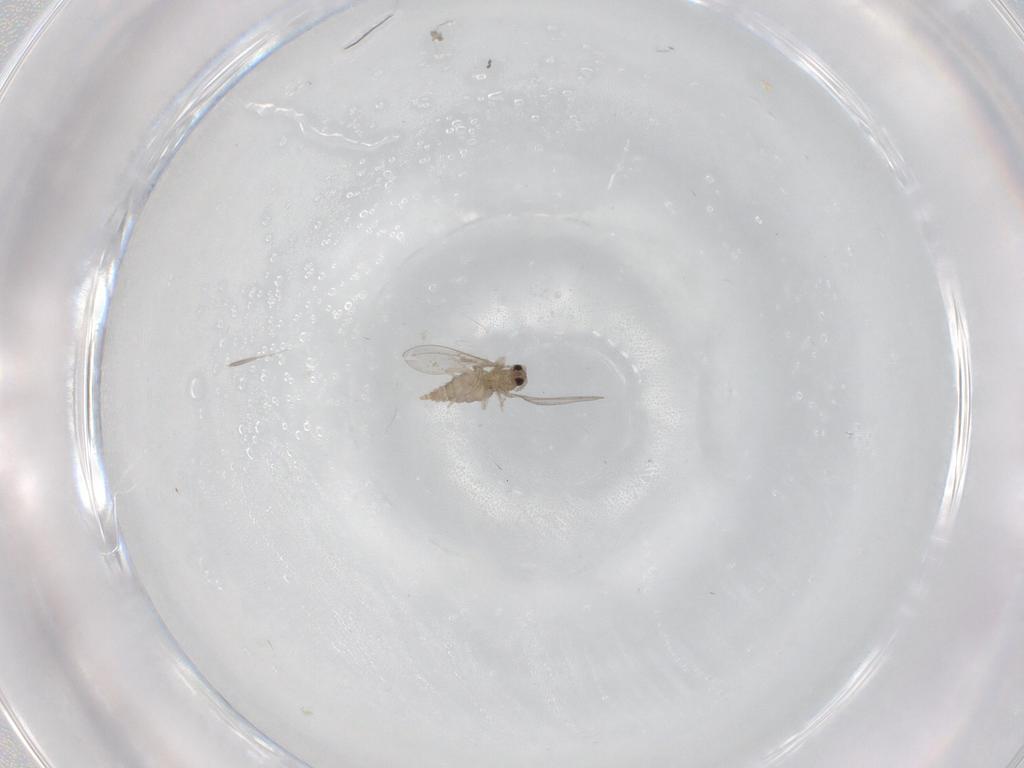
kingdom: Animalia
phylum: Arthropoda
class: Insecta
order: Diptera
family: Cecidomyiidae
